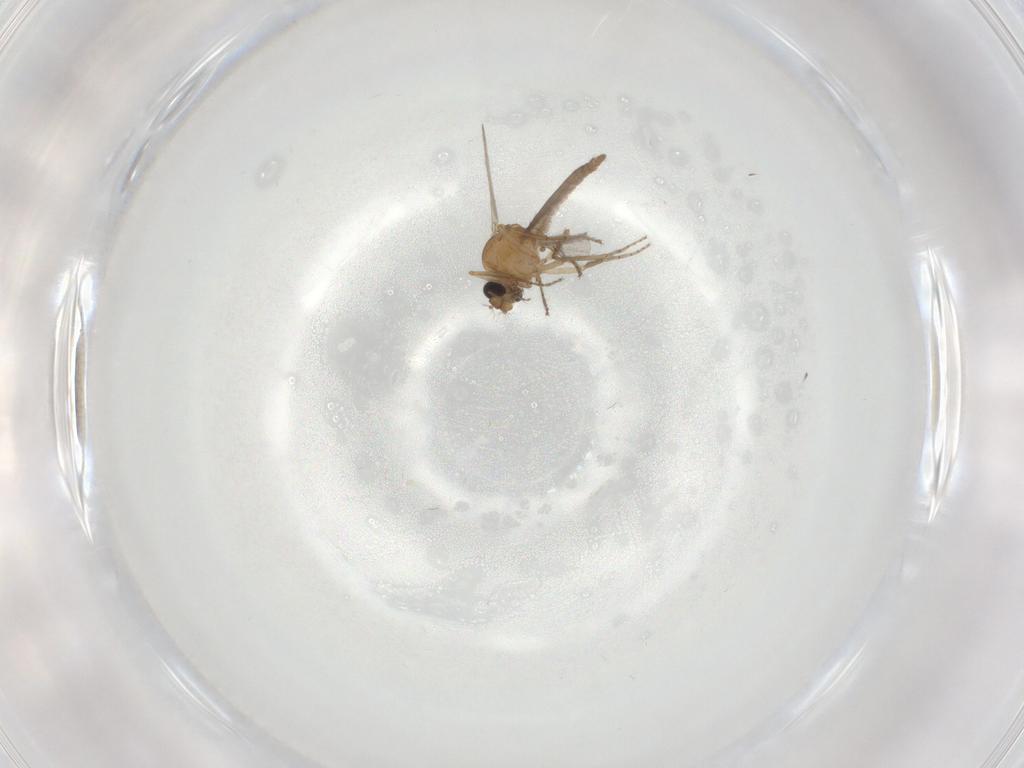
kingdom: Animalia
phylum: Arthropoda
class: Insecta
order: Diptera
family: Ceratopogonidae
